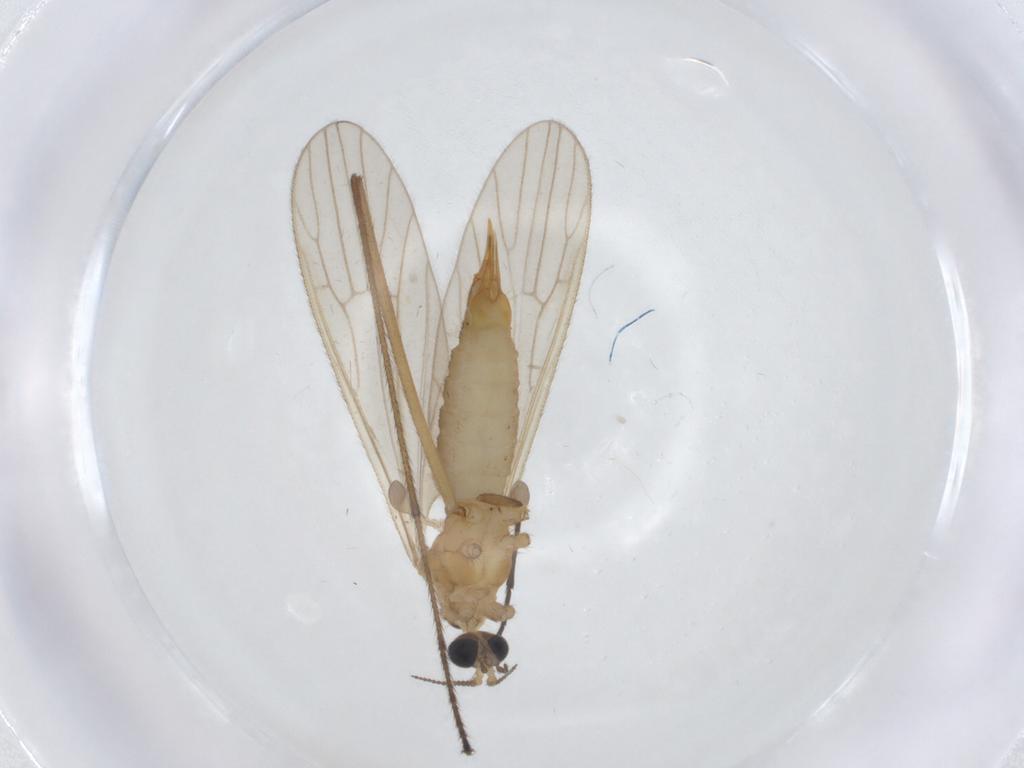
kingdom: Animalia
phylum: Arthropoda
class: Insecta
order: Diptera
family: Limoniidae
